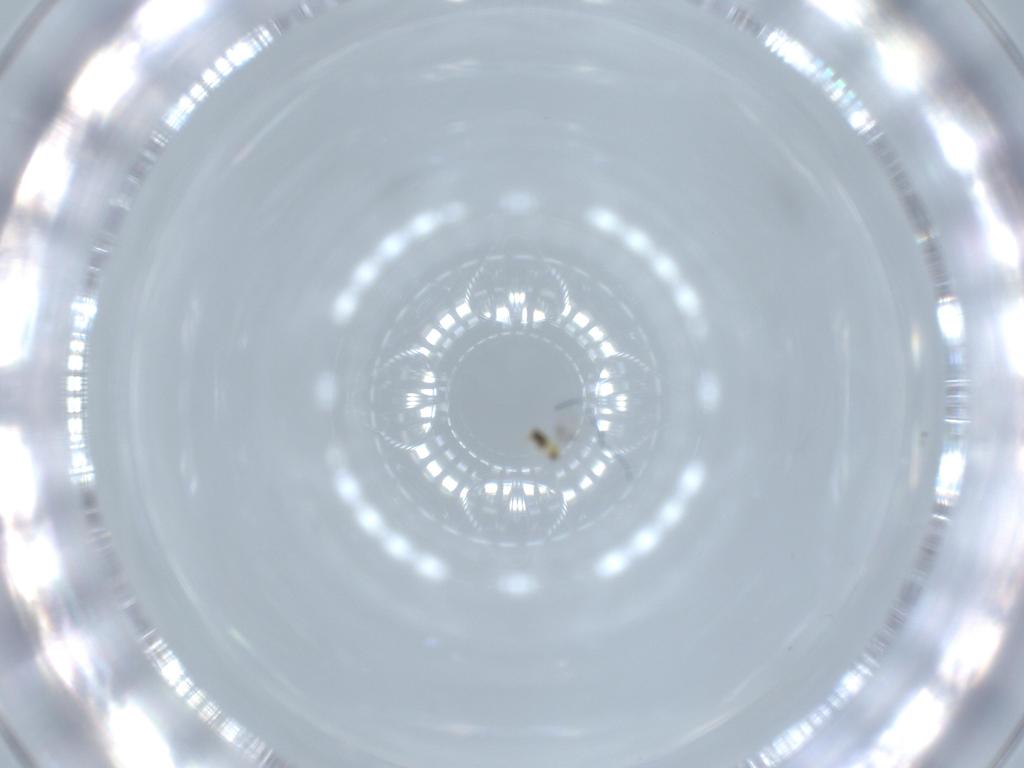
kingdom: Animalia
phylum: Arthropoda
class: Insecta
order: Hymenoptera
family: Trichogrammatidae
